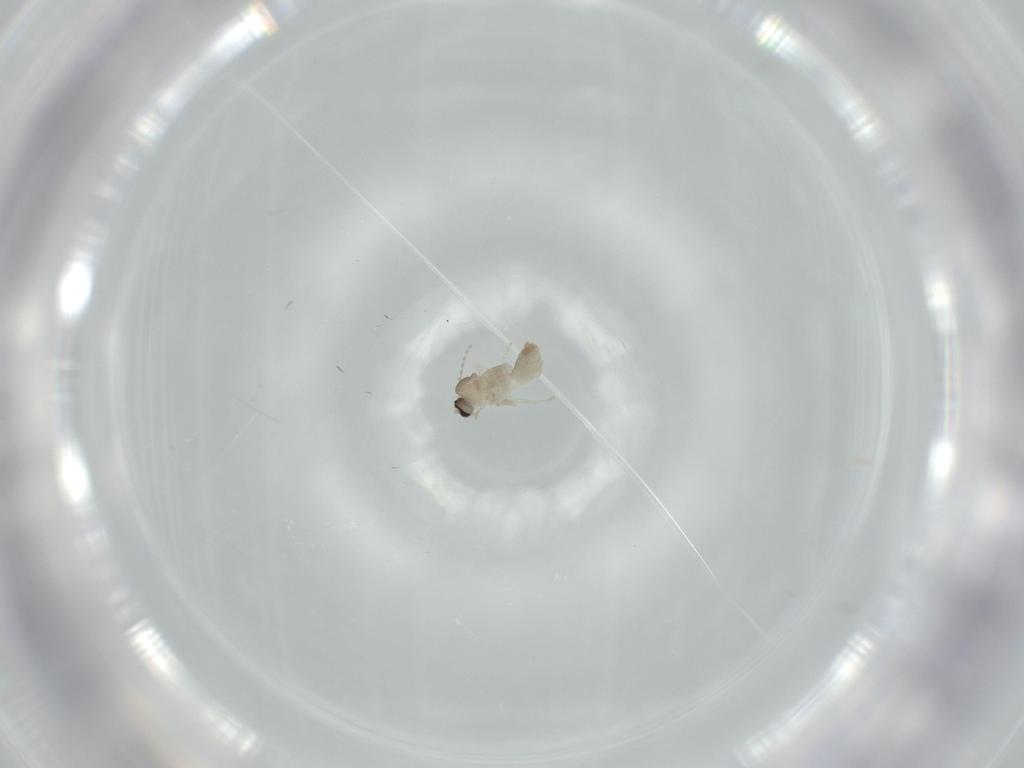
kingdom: Animalia
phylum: Arthropoda
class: Insecta
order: Diptera
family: Cecidomyiidae
